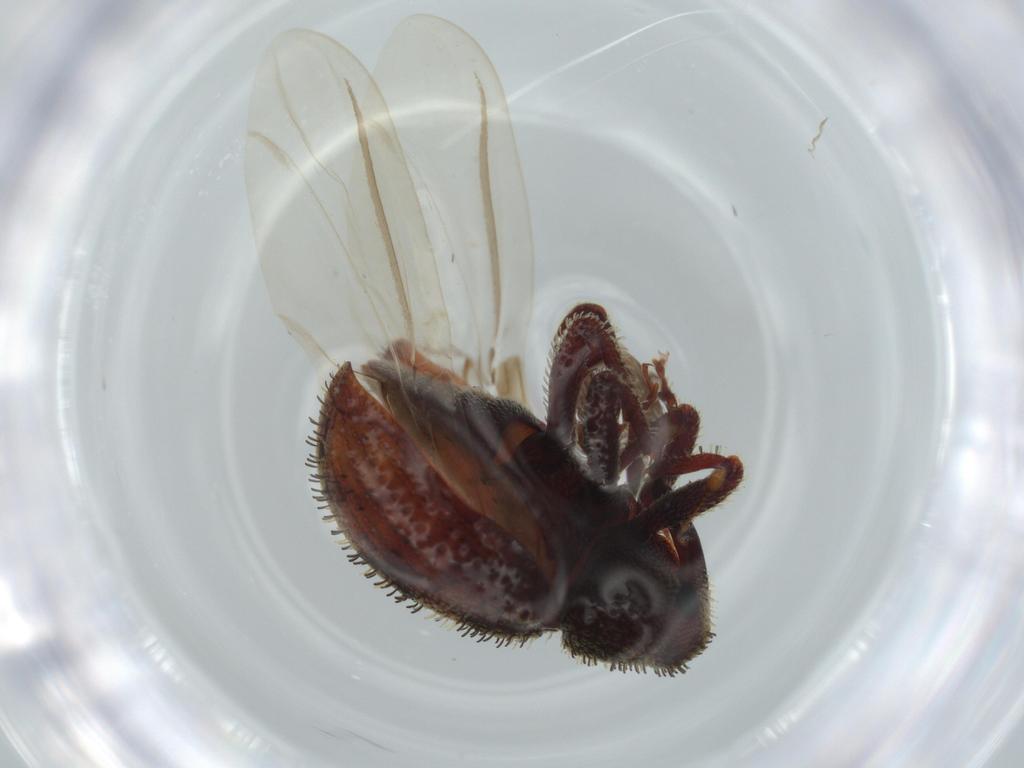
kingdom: Animalia
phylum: Arthropoda
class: Insecta
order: Coleoptera
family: Curculionidae
